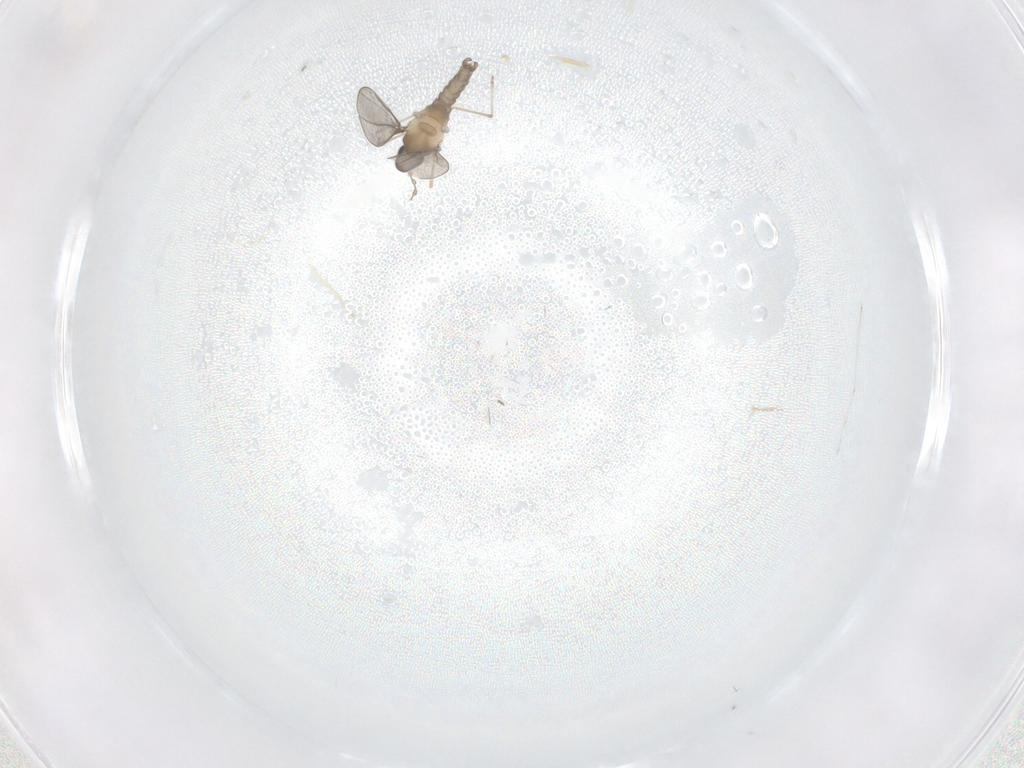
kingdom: Animalia
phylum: Arthropoda
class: Insecta
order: Diptera
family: Cecidomyiidae
